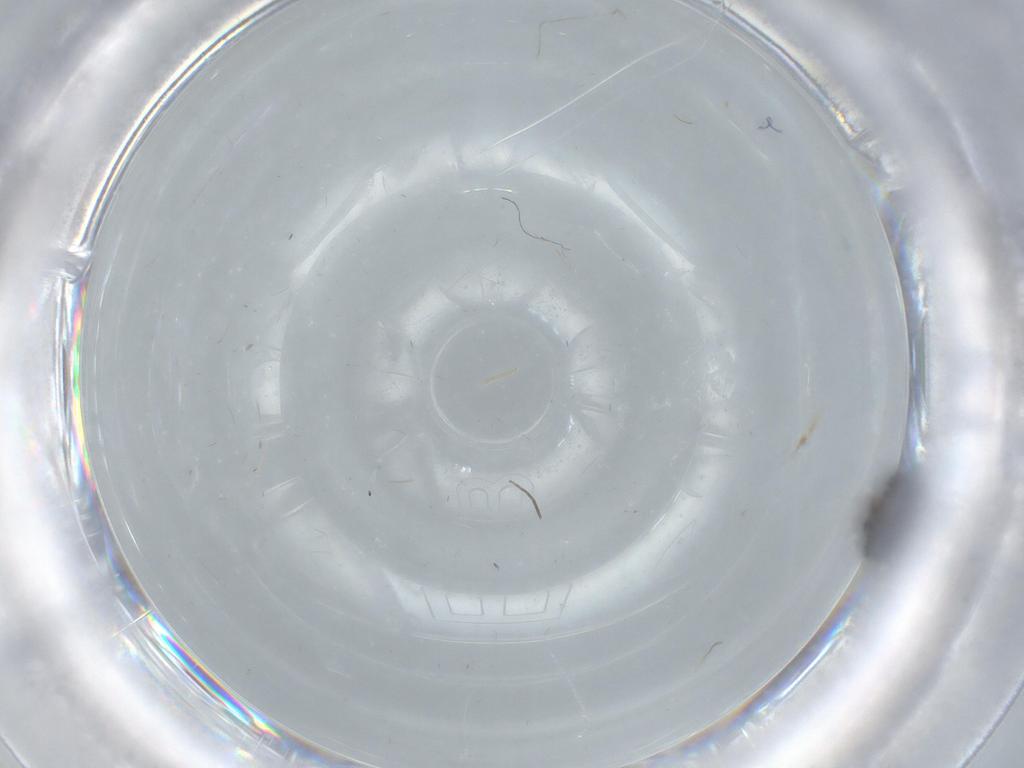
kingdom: Animalia
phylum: Arthropoda
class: Insecta
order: Diptera
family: Phoridae
